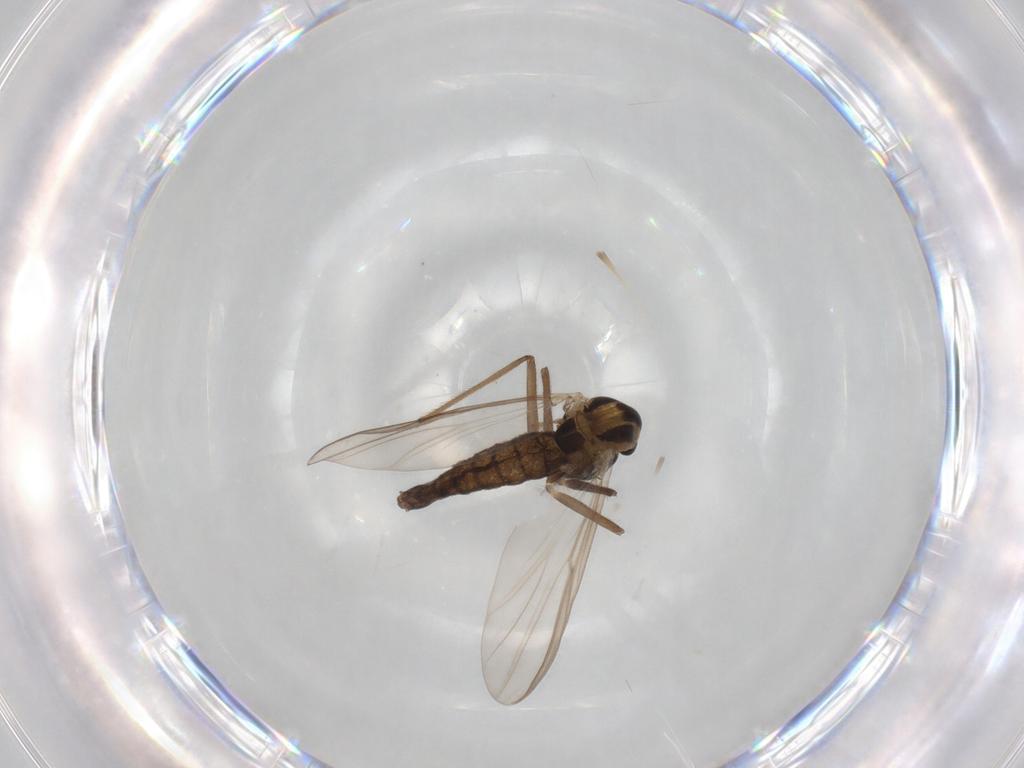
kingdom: Animalia
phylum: Arthropoda
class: Insecta
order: Diptera
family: Chironomidae
